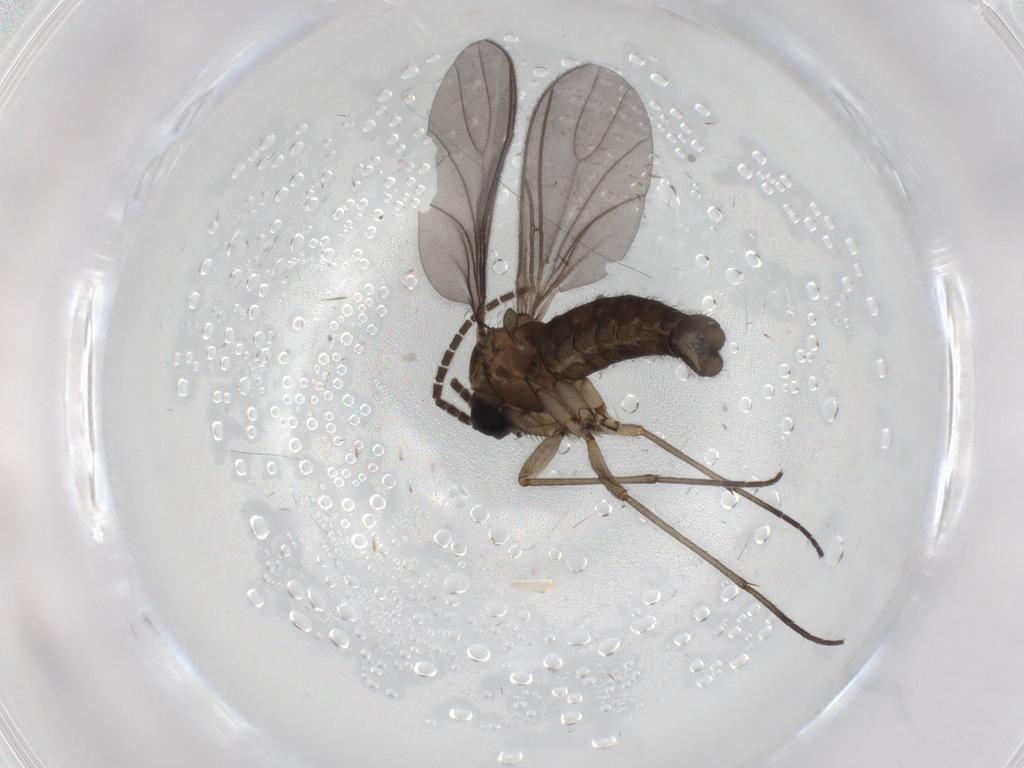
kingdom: Animalia
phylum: Arthropoda
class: Insecta
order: Diptera
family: Sciaridae
